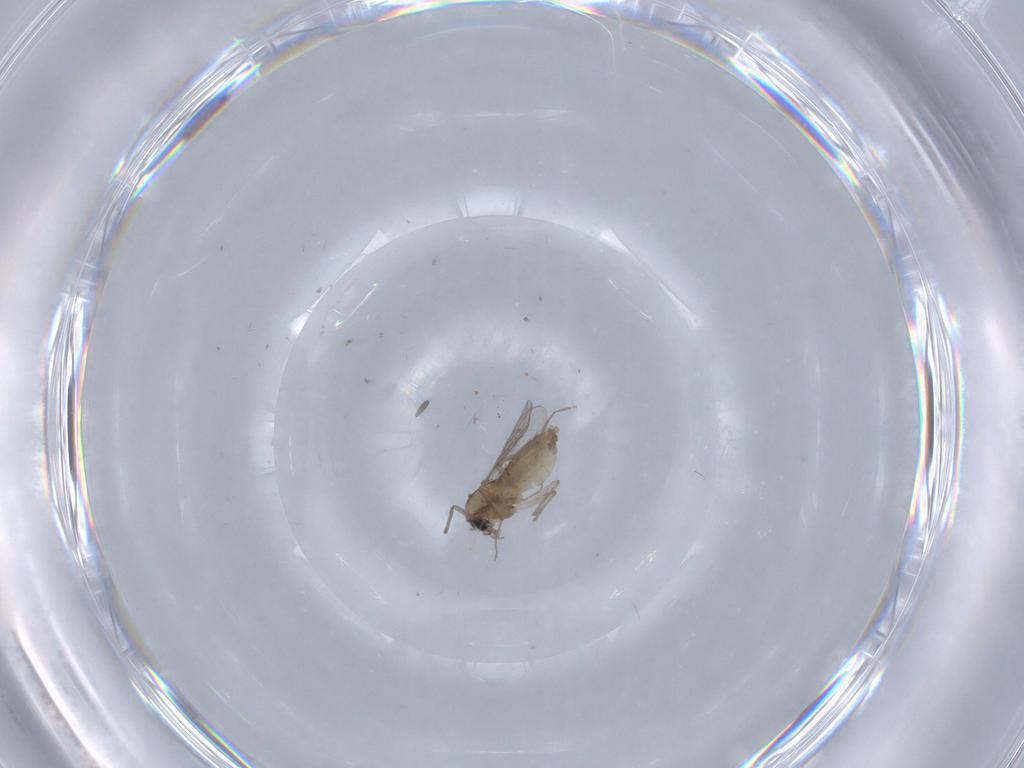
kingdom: Animalia
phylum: Arthropoda
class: Insecta
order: Diptera
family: Chironomidae
